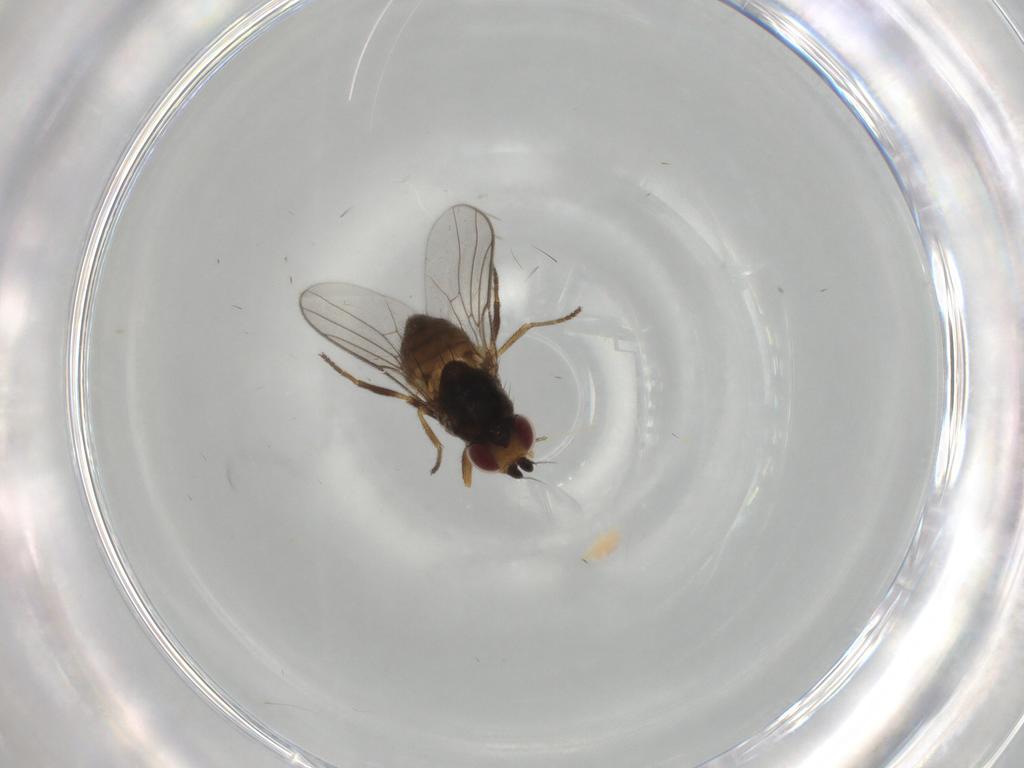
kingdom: Animalia
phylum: Arthropoda
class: Insecta
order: Diptera
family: Chloropidae
